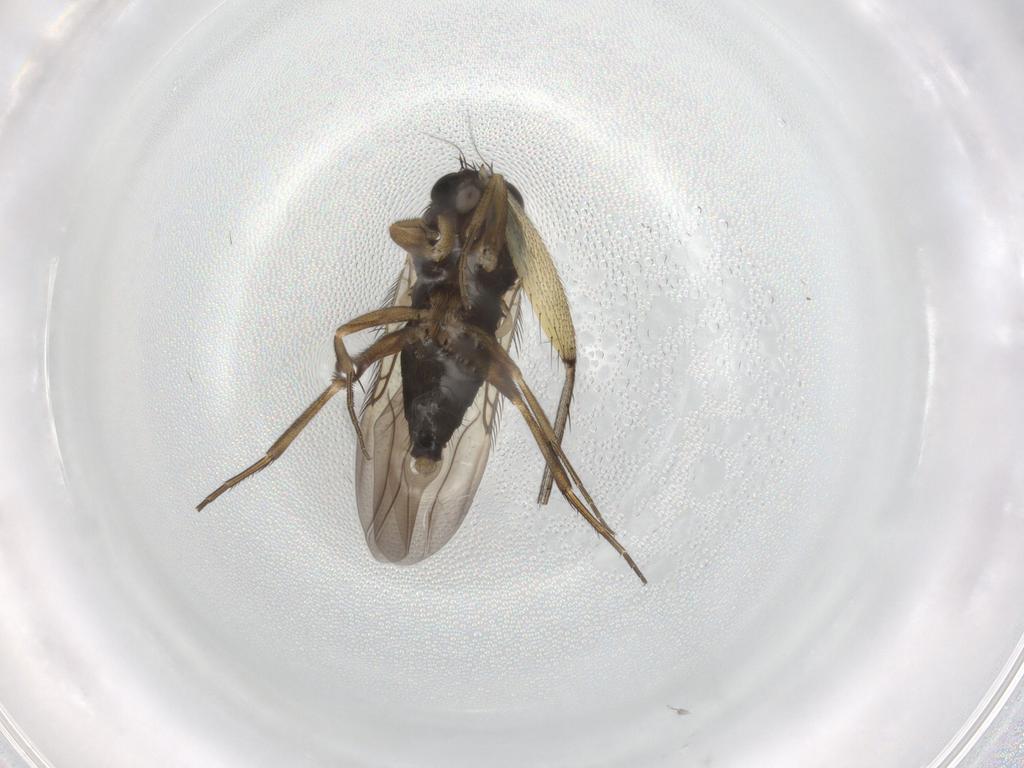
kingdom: Animalia
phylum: Arthropoda
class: Insecta
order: Diptera
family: Phoridae
